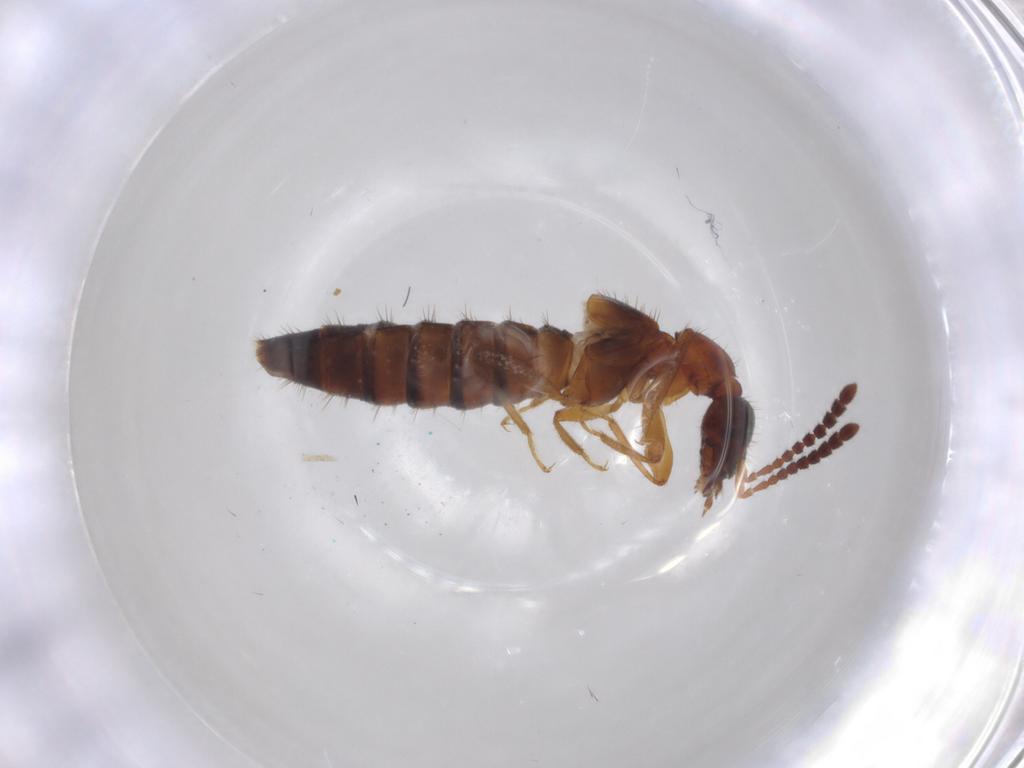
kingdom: Animalia
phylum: Arthropoda
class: Insecta
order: Coleoptera
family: Staphylinidae
